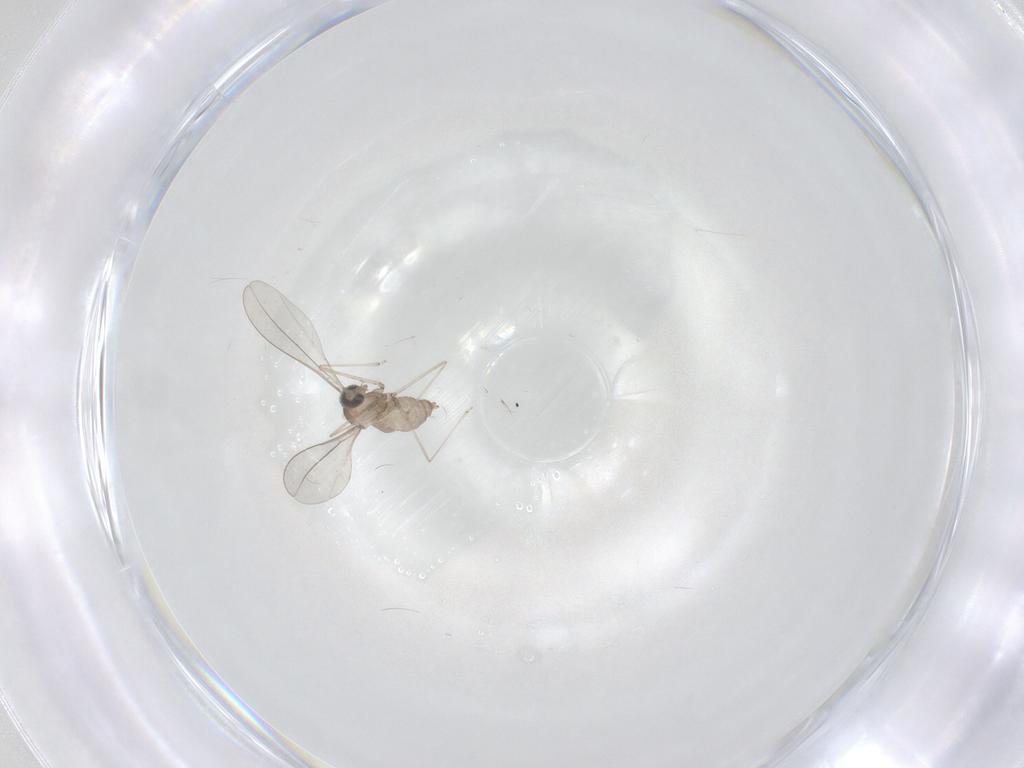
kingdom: Animalia
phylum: Arthropoda
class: Insecta
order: Diptera
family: Cecidomyiidae
